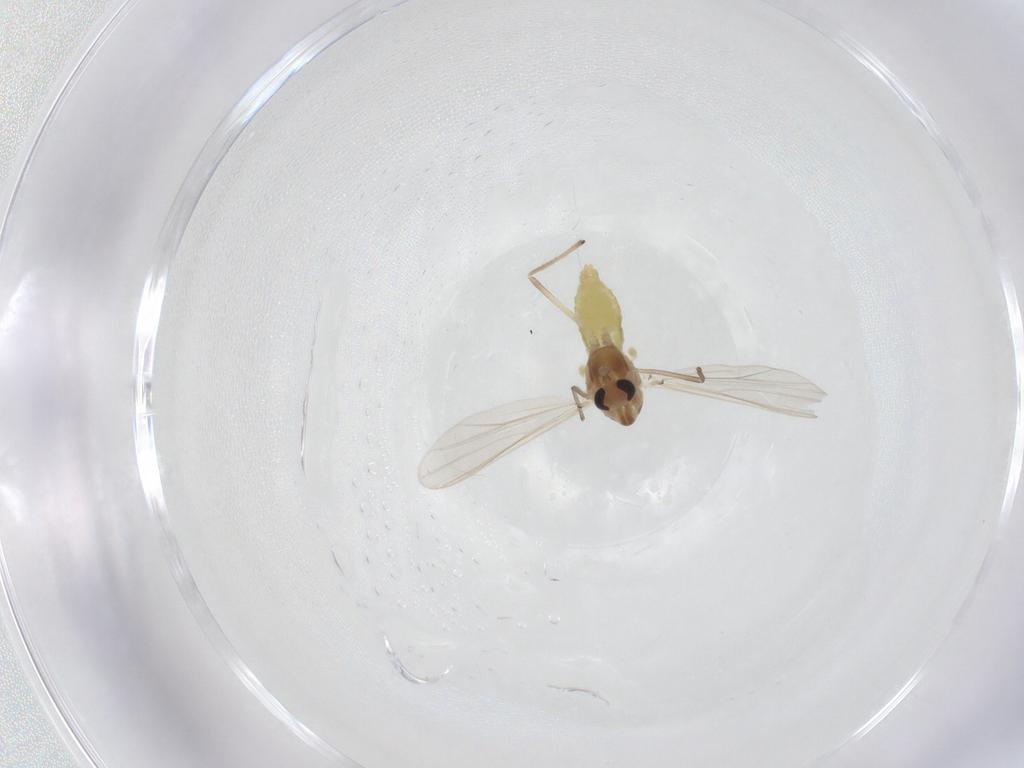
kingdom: Animalia
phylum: Arthropoda
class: Insecta
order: Diptera
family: Chironomidae
